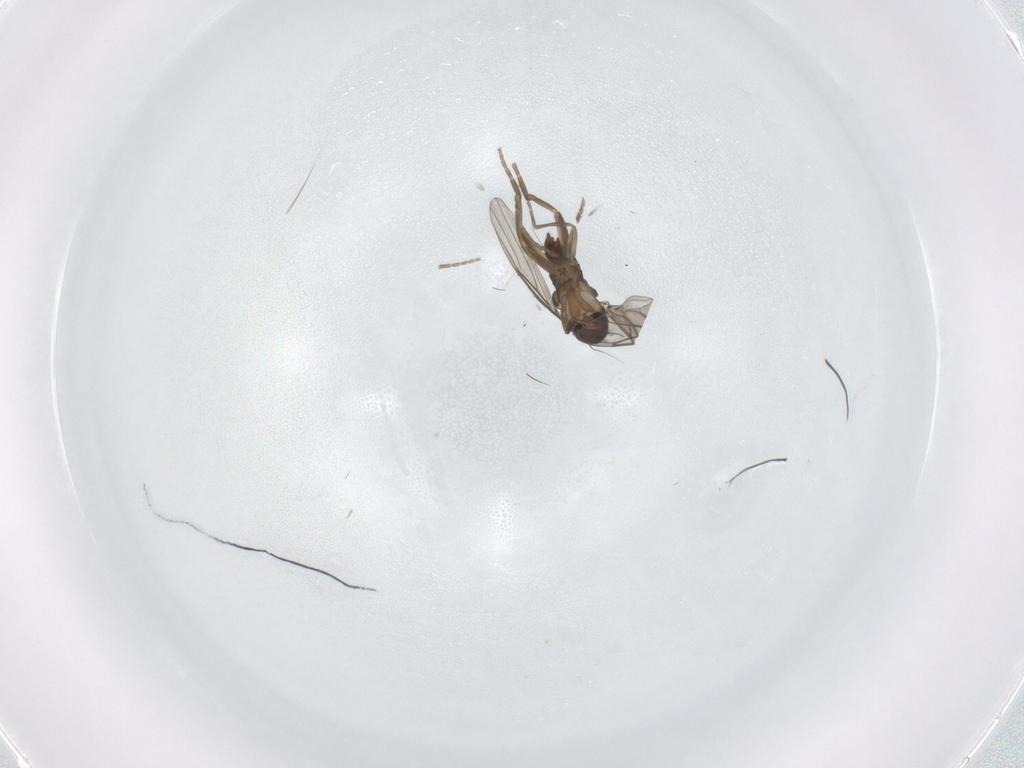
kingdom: Animalia
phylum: Arthropoda
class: Insecta
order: Diptera
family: Phoridae
